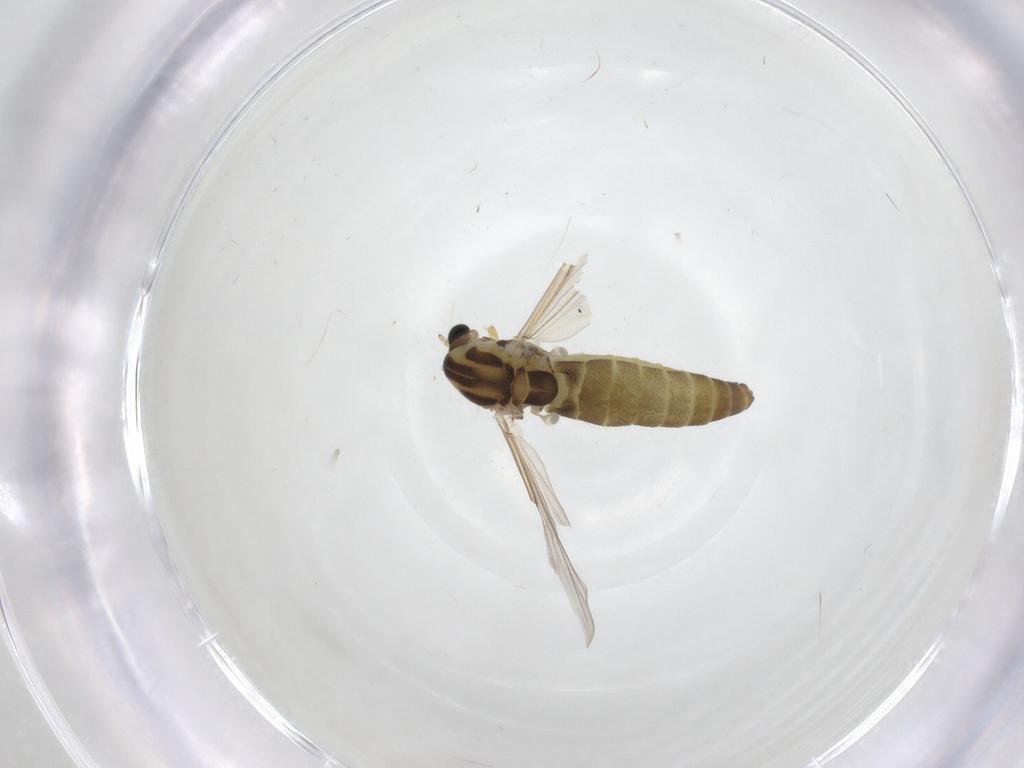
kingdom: Animalia
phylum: Arthropoda
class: Insecta
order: Diptera
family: Chironomidae
